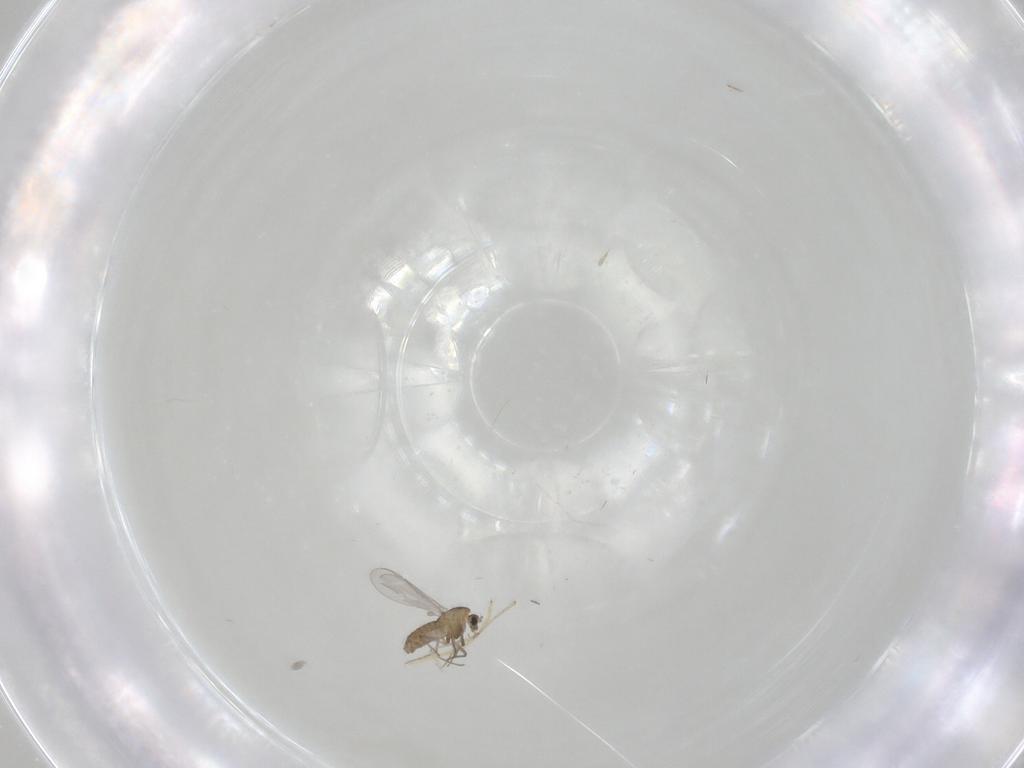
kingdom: Animalia
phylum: Arthropoda
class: Insecta
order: Diptera
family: Chironomidae
